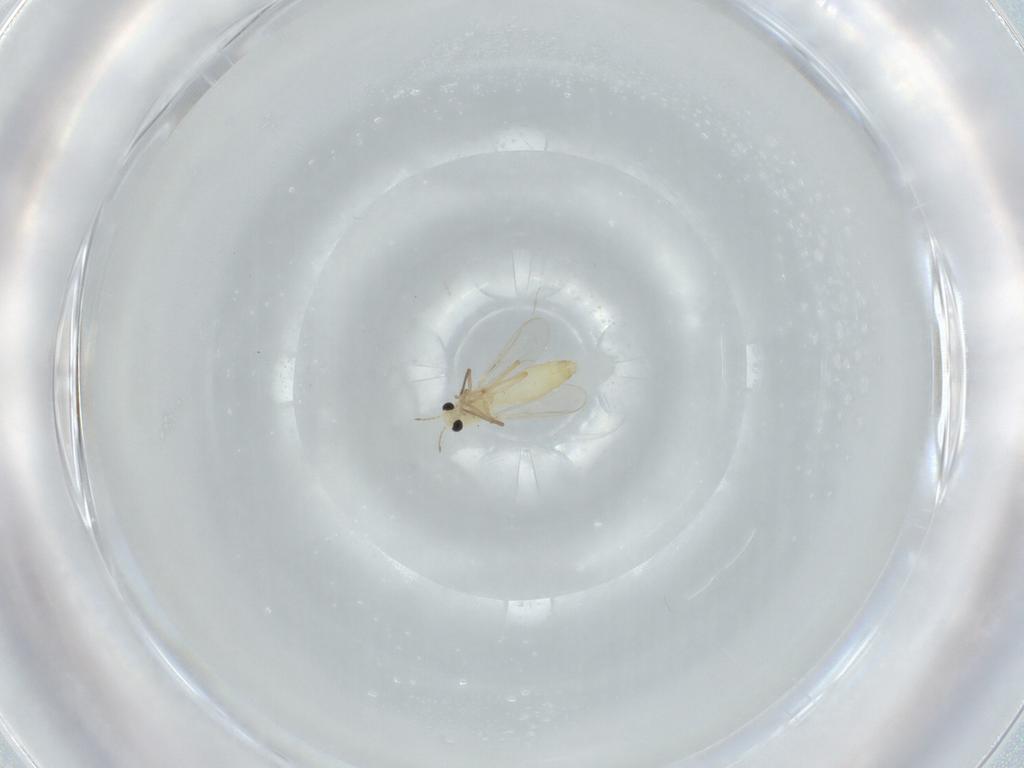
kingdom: Animalia
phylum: Arthropoda
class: Insecta
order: Diptera
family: Chironomidae
